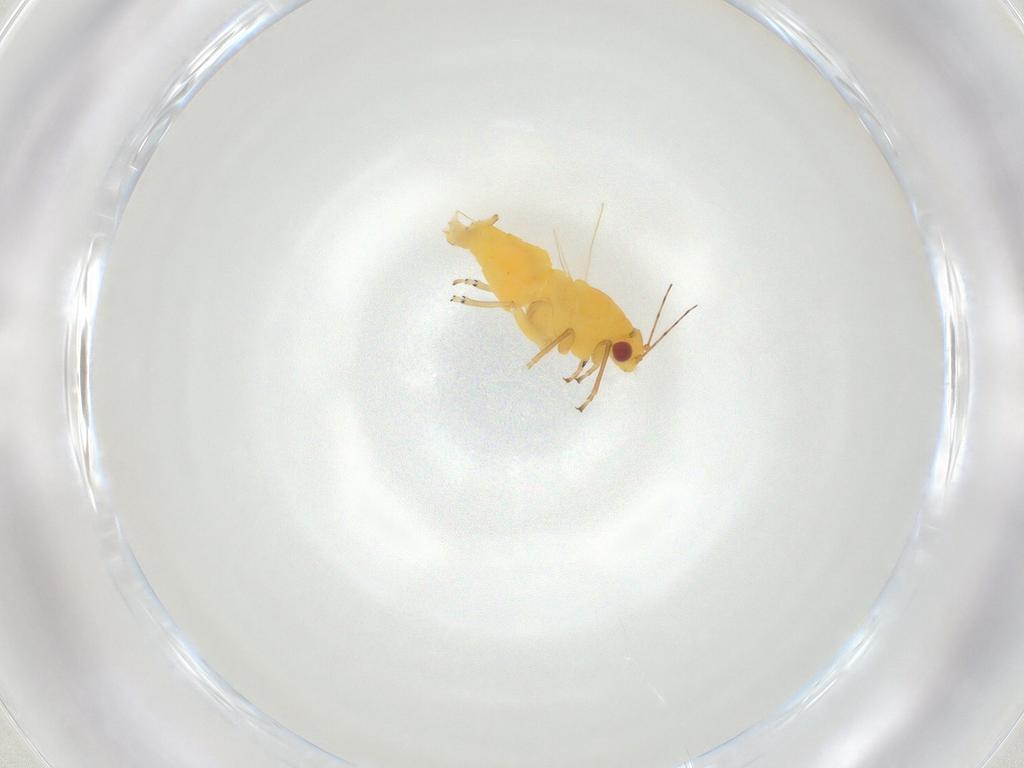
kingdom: Animalia
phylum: Arthropoda
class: Insecta
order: Hemiptera
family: Psyllidae
